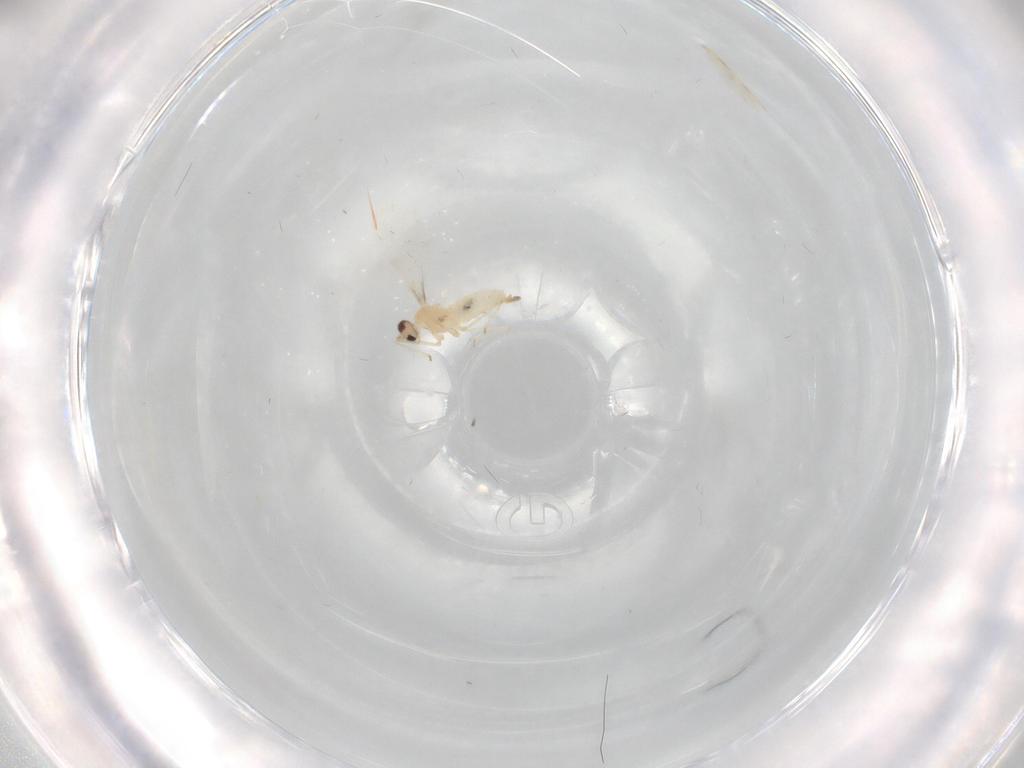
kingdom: Animalia
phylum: Arthropoda
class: Insecta
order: Diptera
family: Cecidomyiidae
